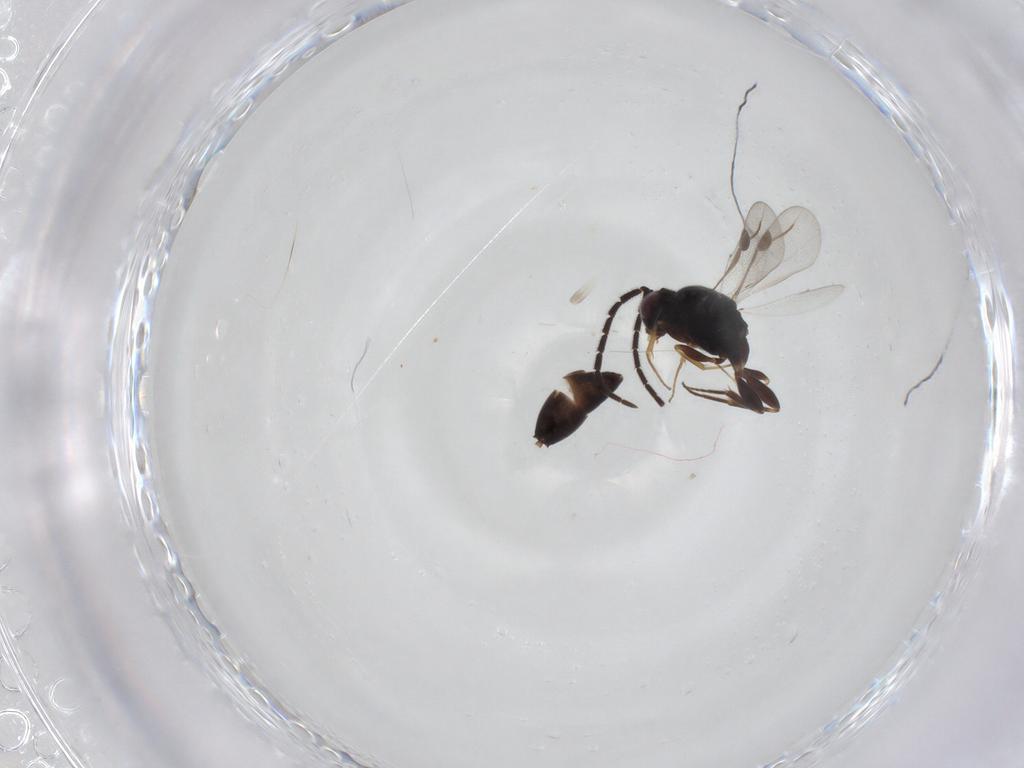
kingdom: Animalia
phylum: Arthropoda
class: Insecta
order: Hymenoptera
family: Megaspilidae
